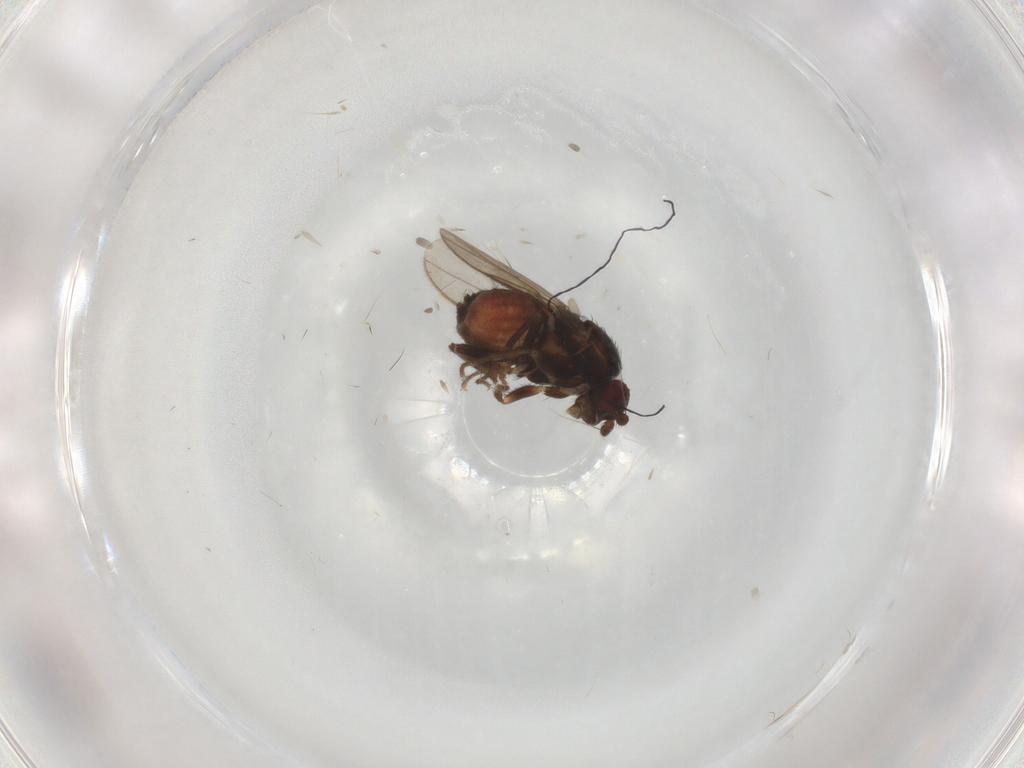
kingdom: Animalia
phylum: Arthropoda
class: Insecta
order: Diptera
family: Sphaeroceridae
